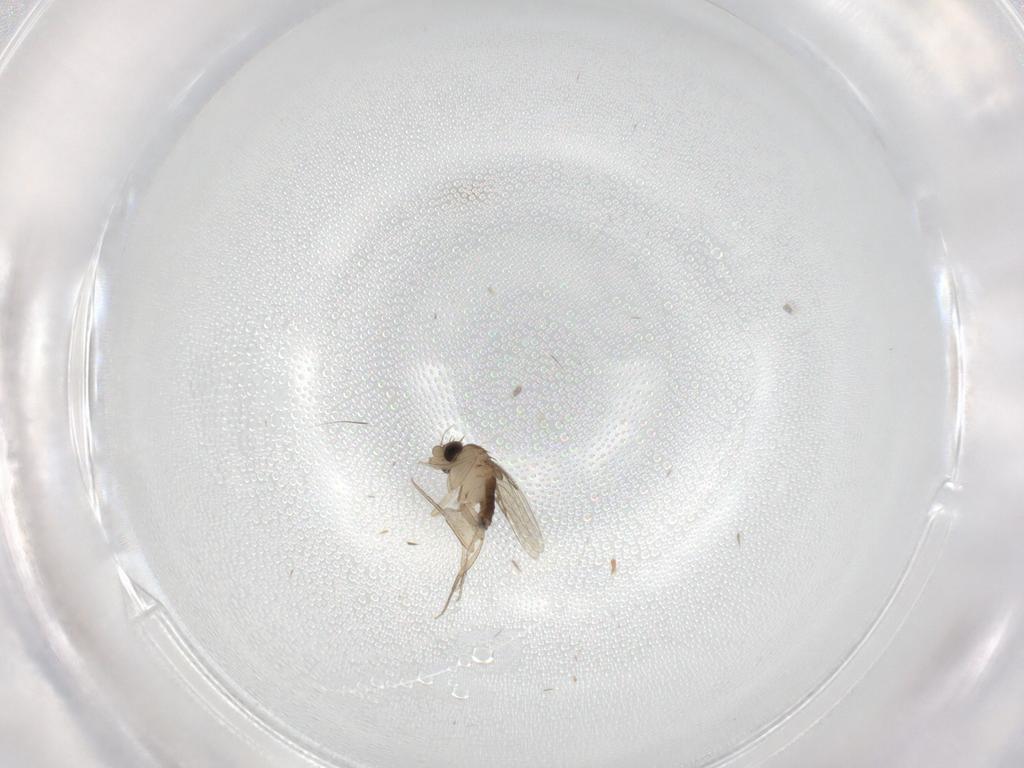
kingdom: Animalia
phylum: Arthropoda
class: Insecta
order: Diptera
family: Phoridae
